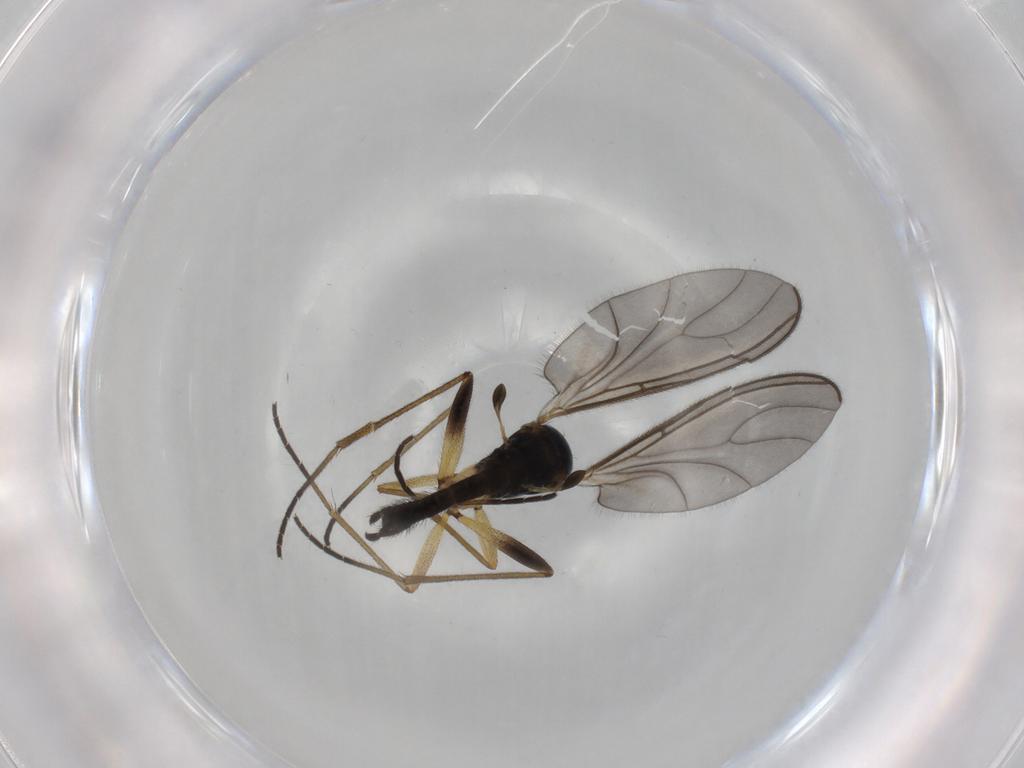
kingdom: Animalia
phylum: Arthropoda
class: Insecta
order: Diptera
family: Sciaridae
